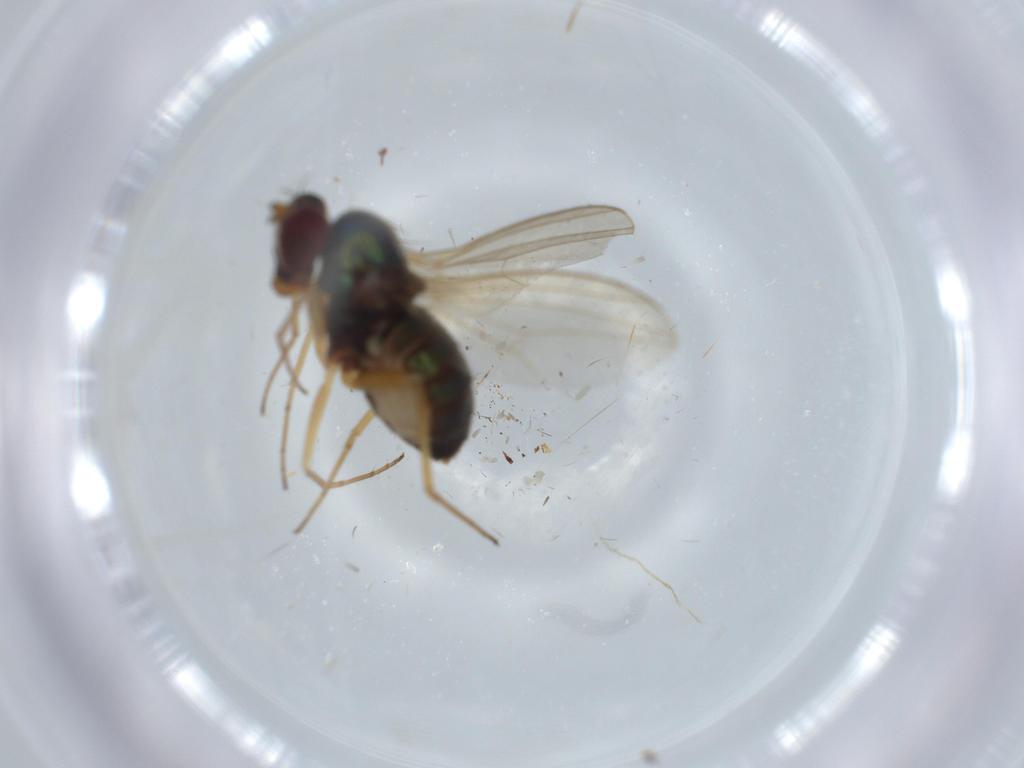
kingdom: Animalia
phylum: Arthropoda
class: Insecta
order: Diptera
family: Dolichopodidae
